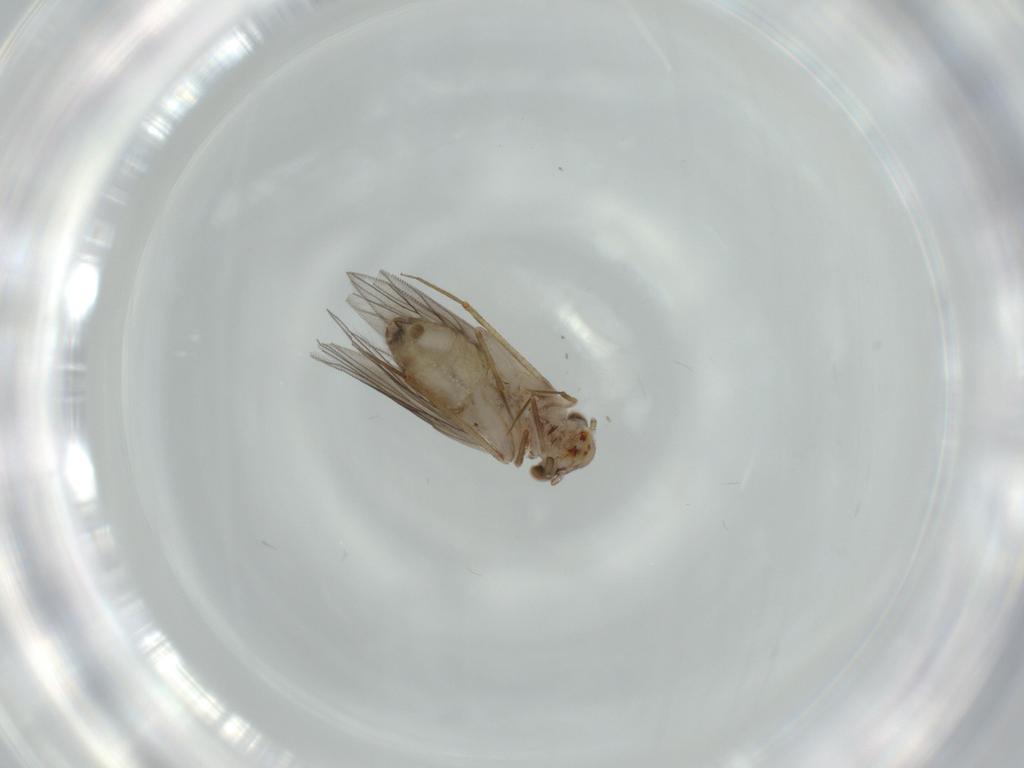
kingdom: Animalia
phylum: Arthropoda
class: Insecta
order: Psocodea
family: Lepidopsocidae
